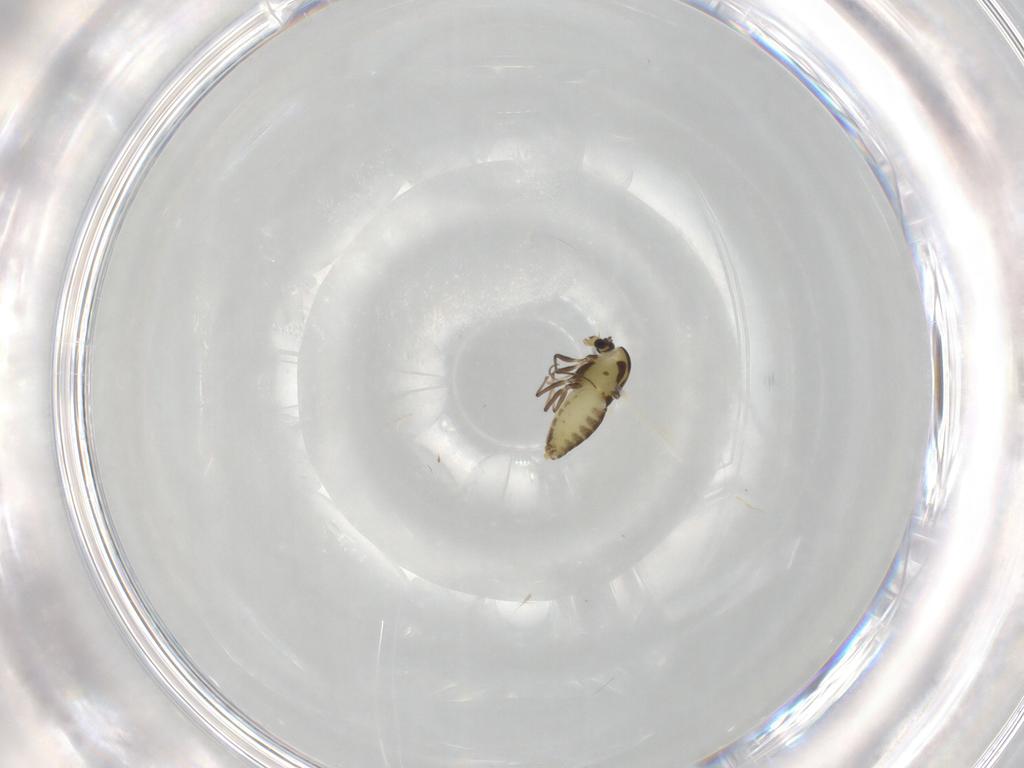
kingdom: Animalia
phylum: Arthropoda
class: Insecta
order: Diptera
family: Chironomidae
